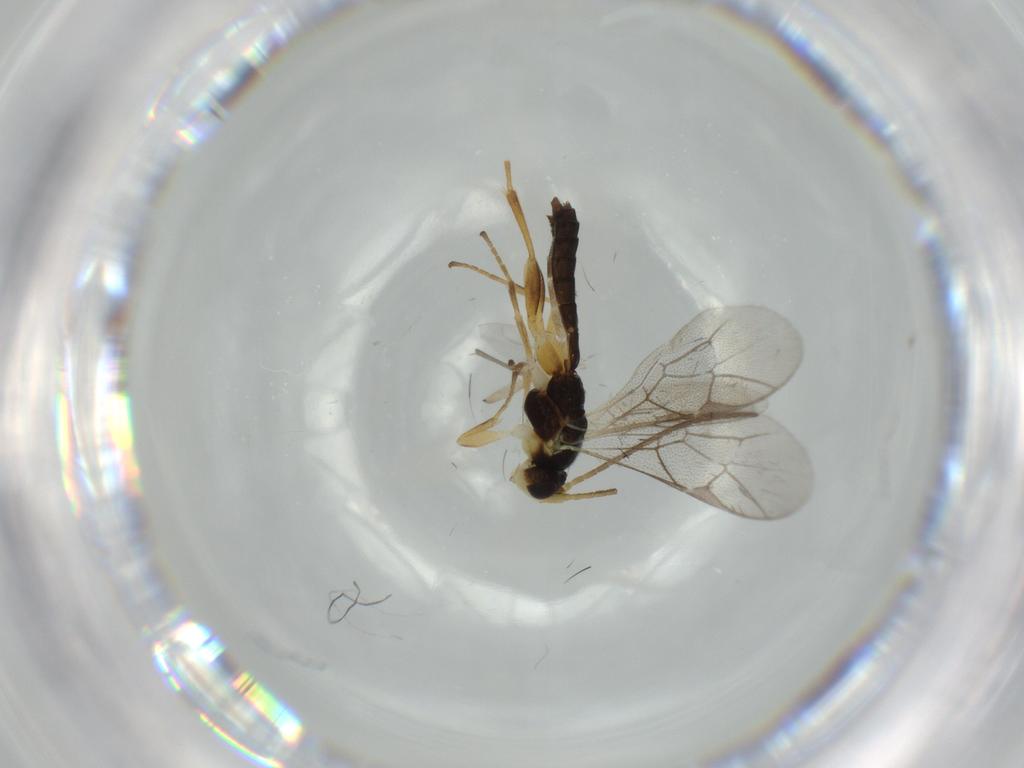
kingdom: Animalia
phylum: Arthropoda
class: Insecta
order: Hymenoptera
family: Ichneumonidae
